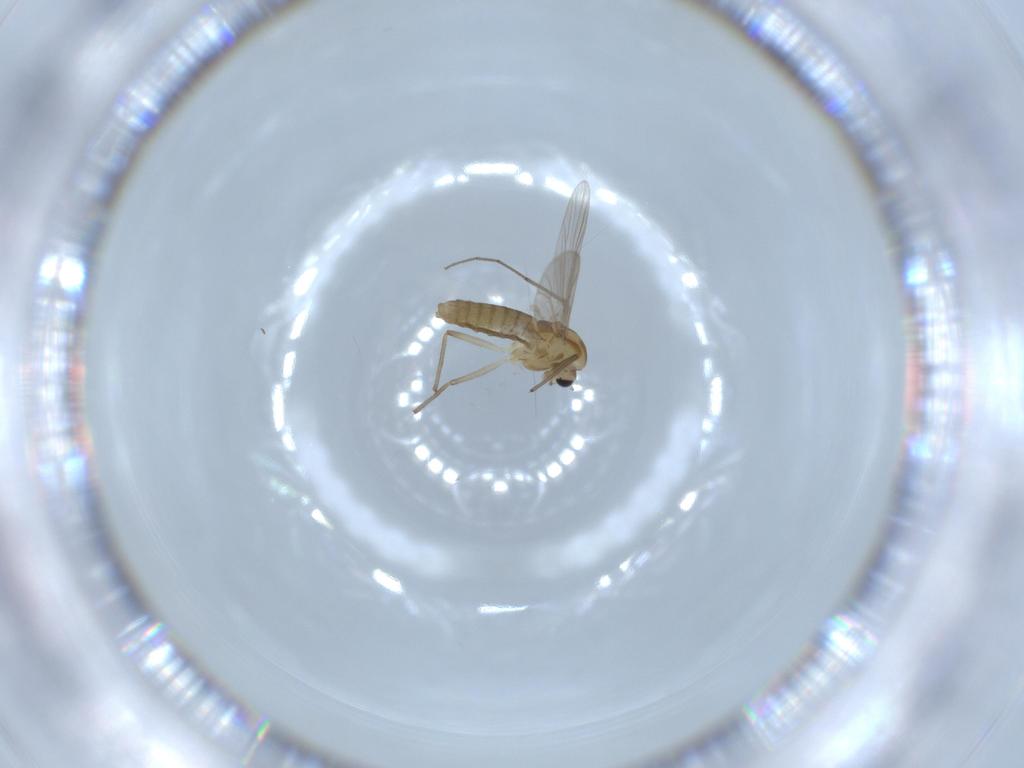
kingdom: Animalia
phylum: Arthropoda
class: Insecta
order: Diptera
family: Chironomidae
